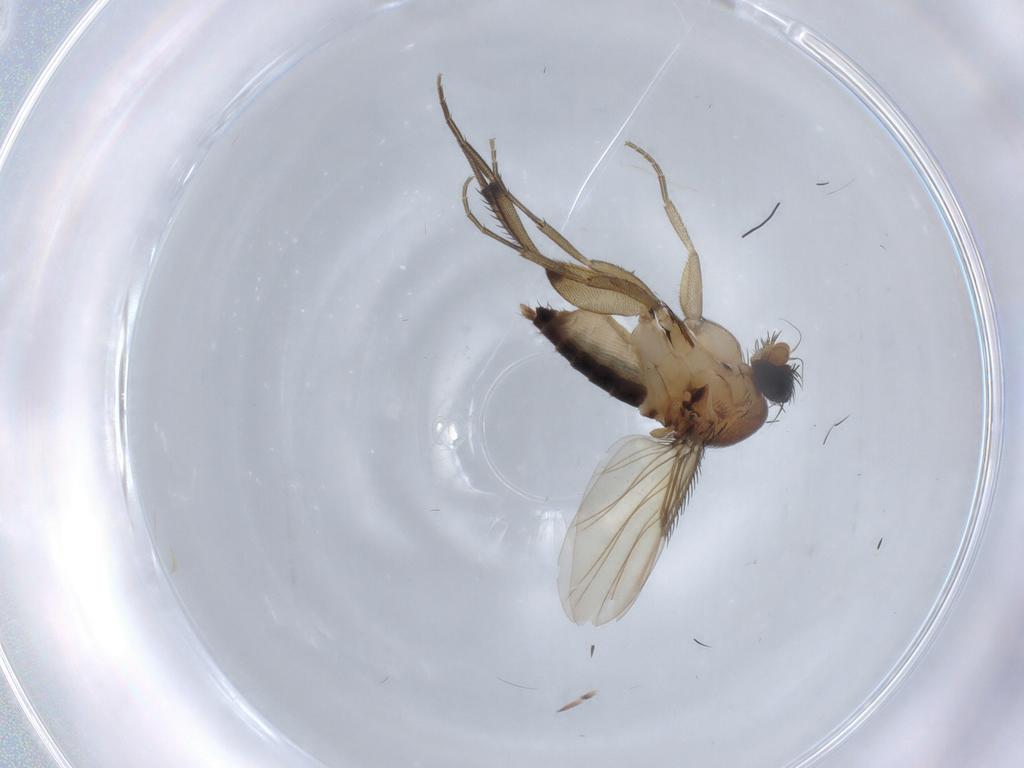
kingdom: Animalia
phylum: Arthropoda
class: Insecta
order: Diptera
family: Phoridae
